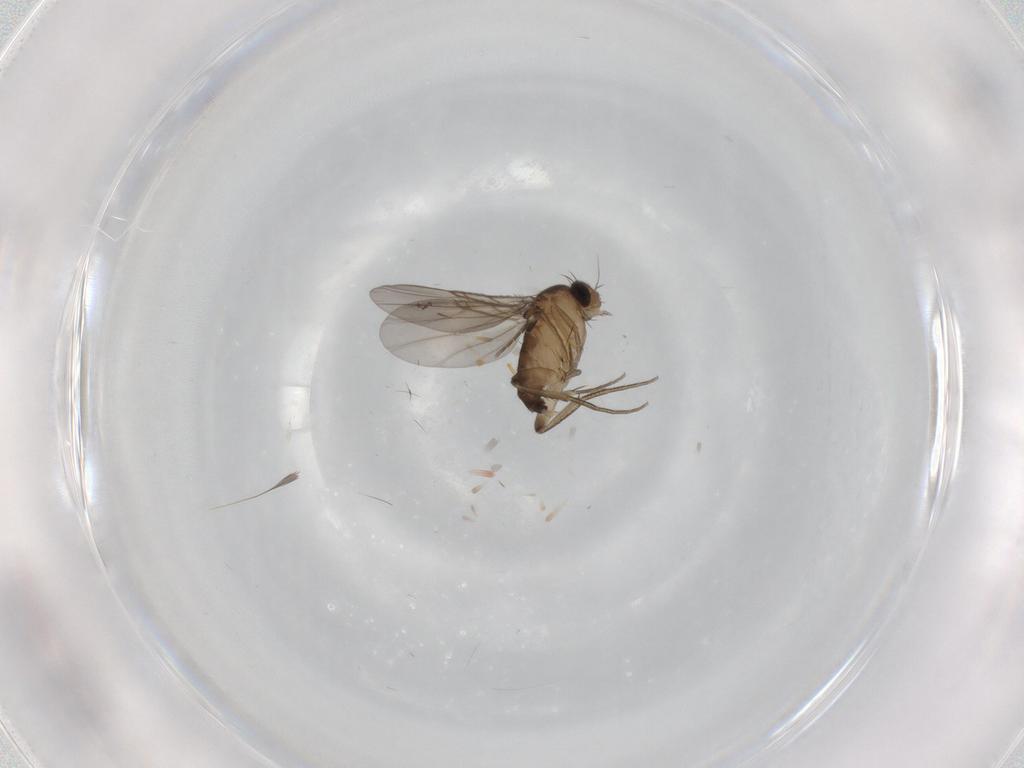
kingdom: Animalia
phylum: Arthropoda
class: Insecta
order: Diptera
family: Phoridae
